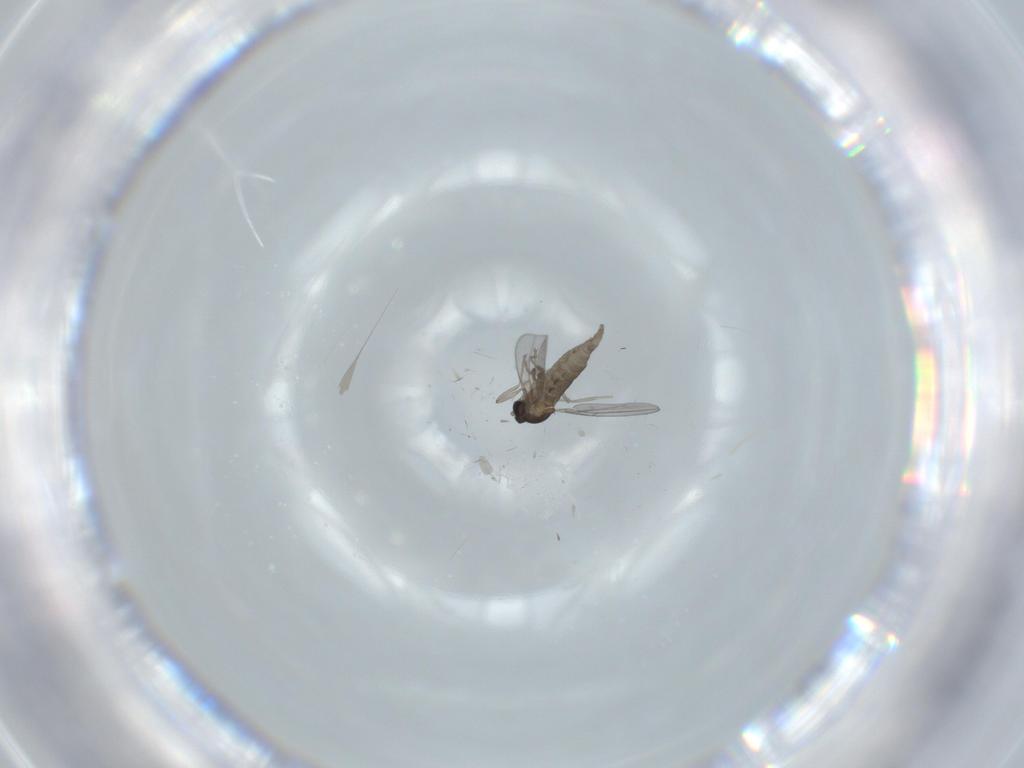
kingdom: Animalia
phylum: Arthropoda
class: Insecta
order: Diptera
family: Cecidomyiidae
